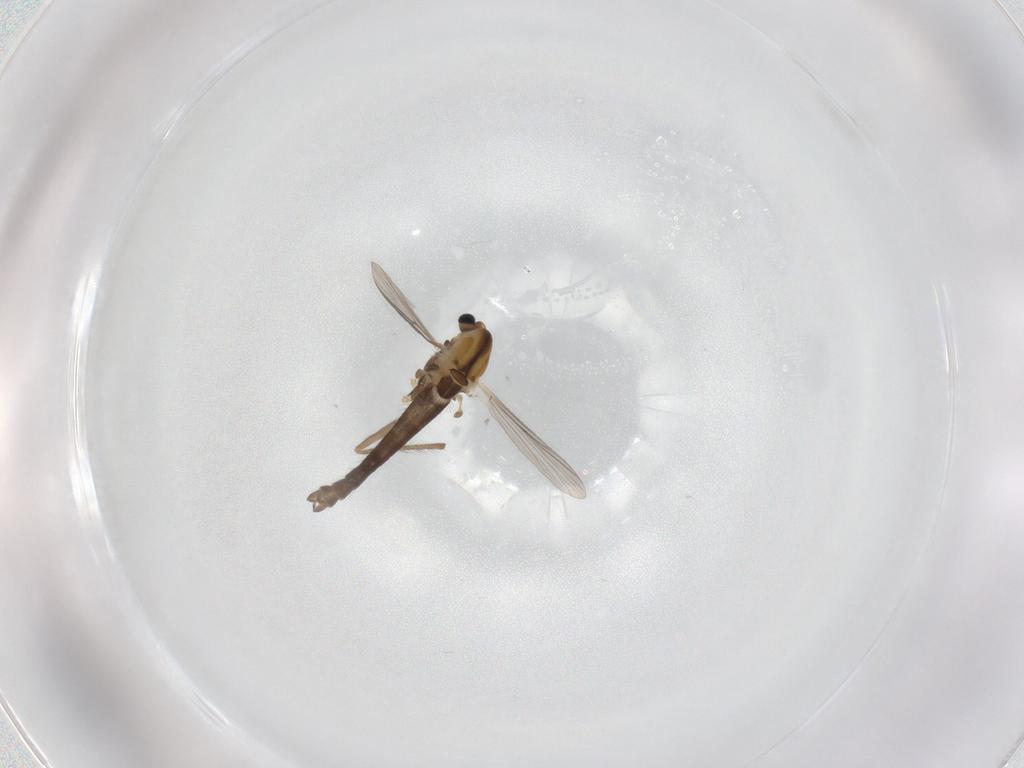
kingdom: Animalia
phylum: Arthropoda
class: Insecta
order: Diptera
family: Chironomidae
